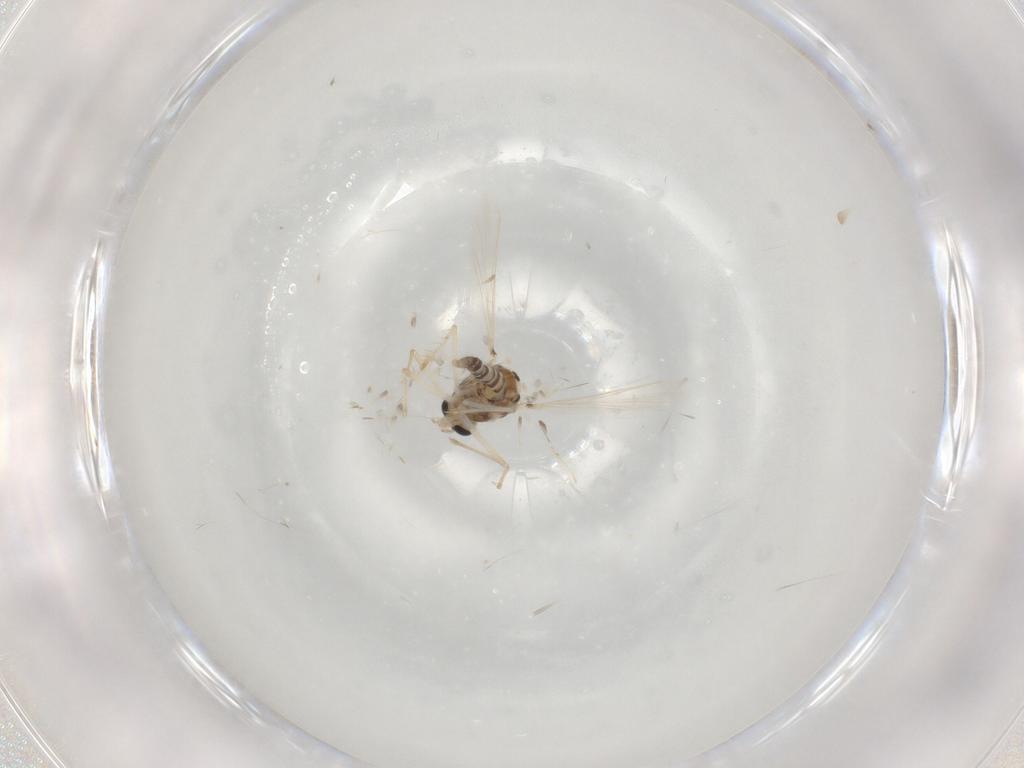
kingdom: Animalia
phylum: Arthropoda
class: Insecta
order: Diptera
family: Chironomidae
